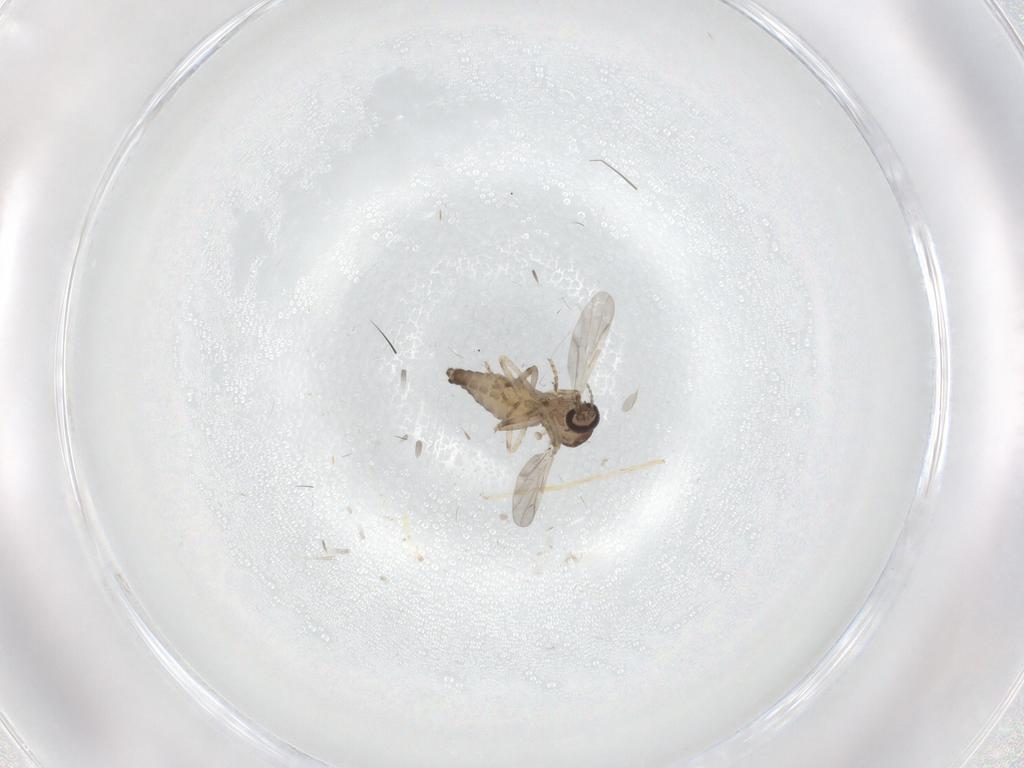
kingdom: Animalia
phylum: Arthropoda
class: Insecta
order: Diptera
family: Ceratopogonidae
